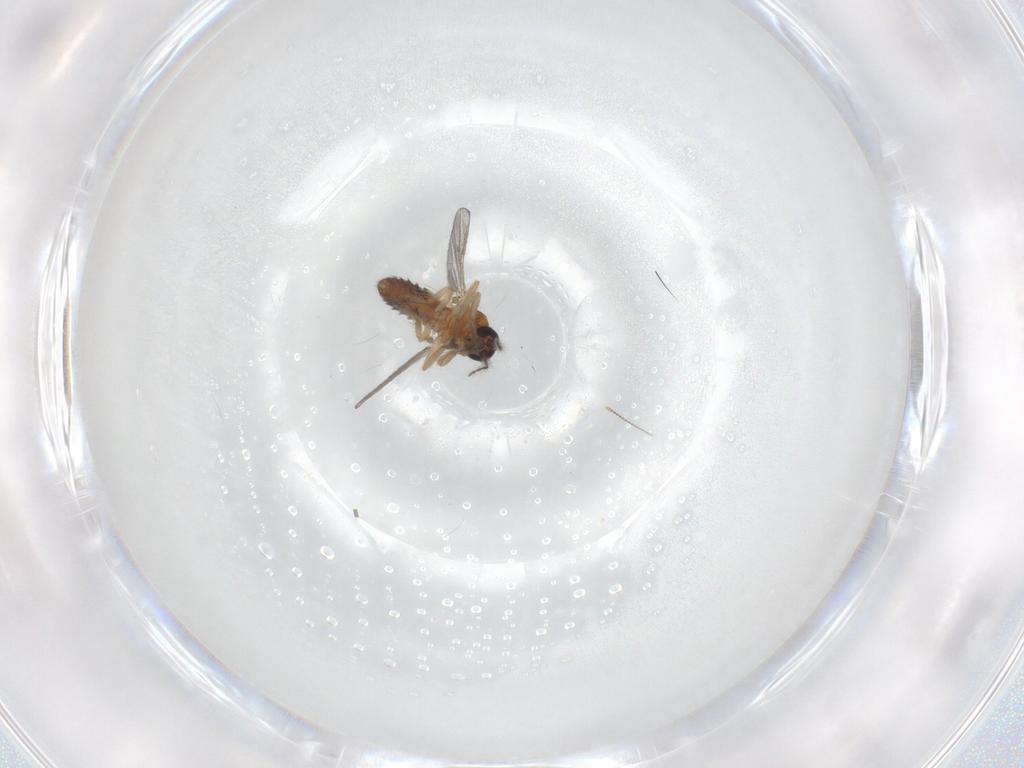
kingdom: Animalia
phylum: Arthropoda
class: Insecta
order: Diptera
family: Ceratopogonidae
